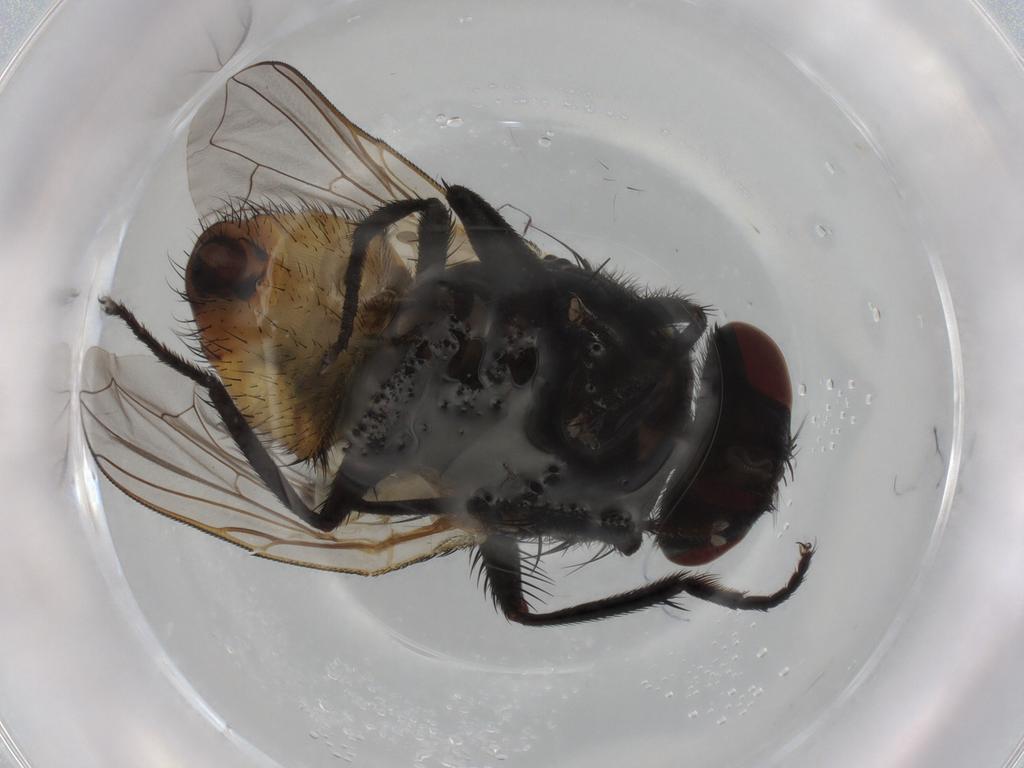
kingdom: Animalia
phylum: Arthropoda
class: Insecta
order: Diptera
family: Muscidae
